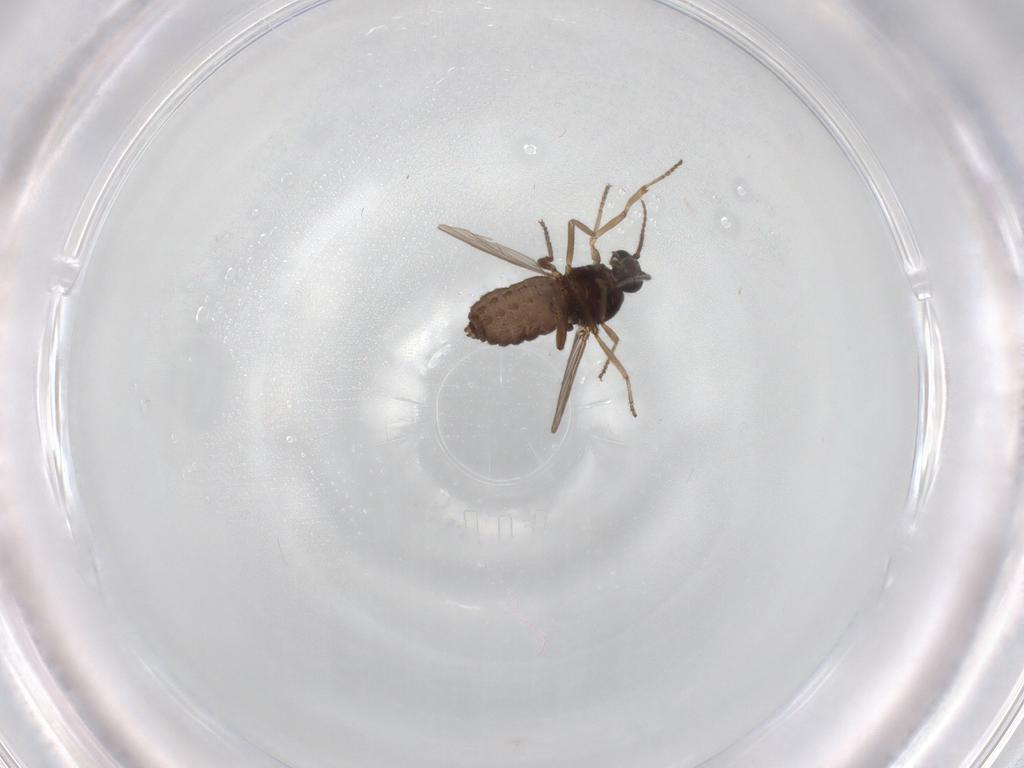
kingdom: Animalia
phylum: Arthropoda
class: Insecta
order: Diptera
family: Ceratopogonidae
